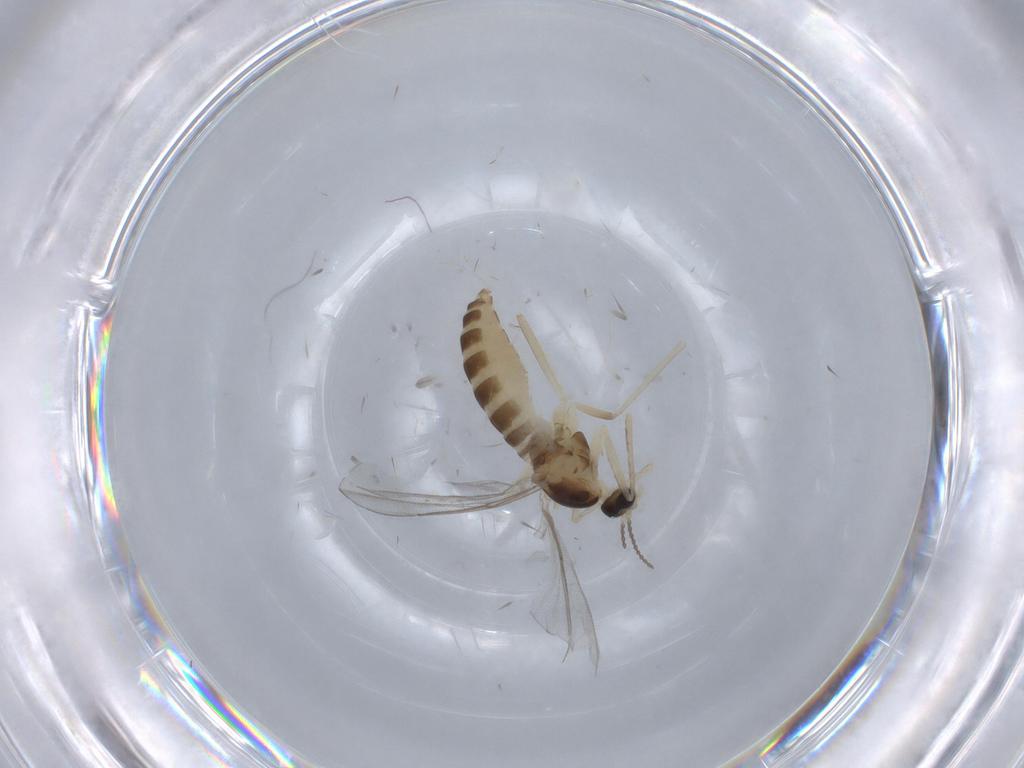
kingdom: Animalia
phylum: Arthropoda
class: Insecta
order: Diptera
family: Cecidomyiidae
